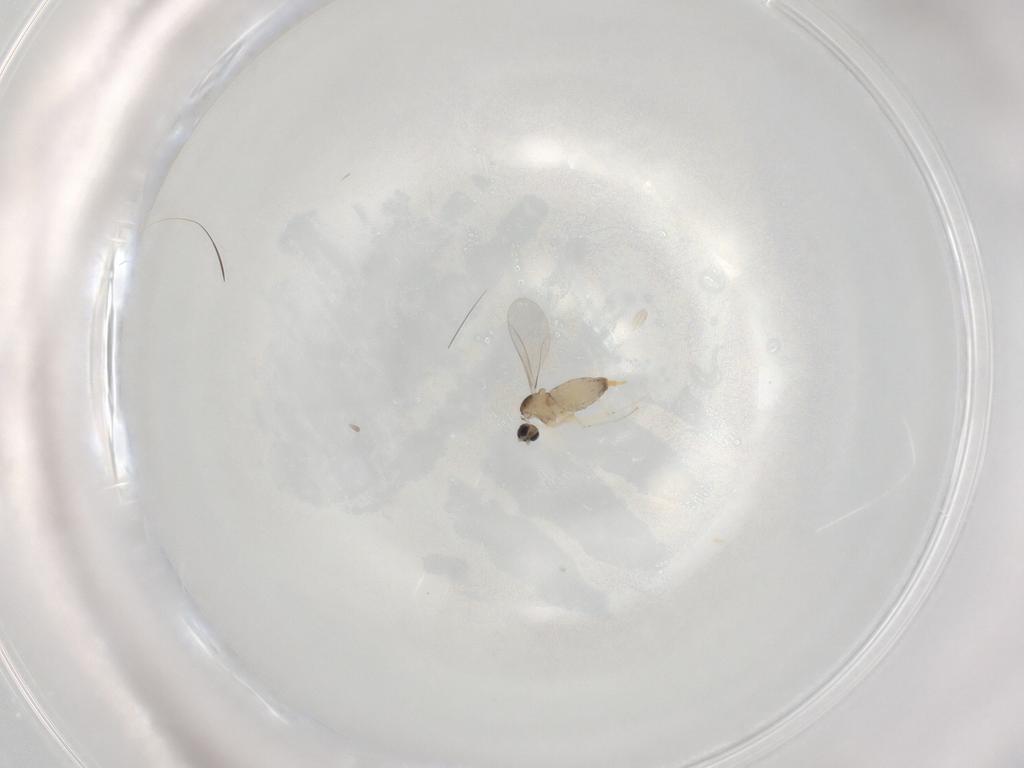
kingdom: Animalia
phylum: Arthropoda
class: Insecta
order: Diptera
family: Cecidomyiidae
